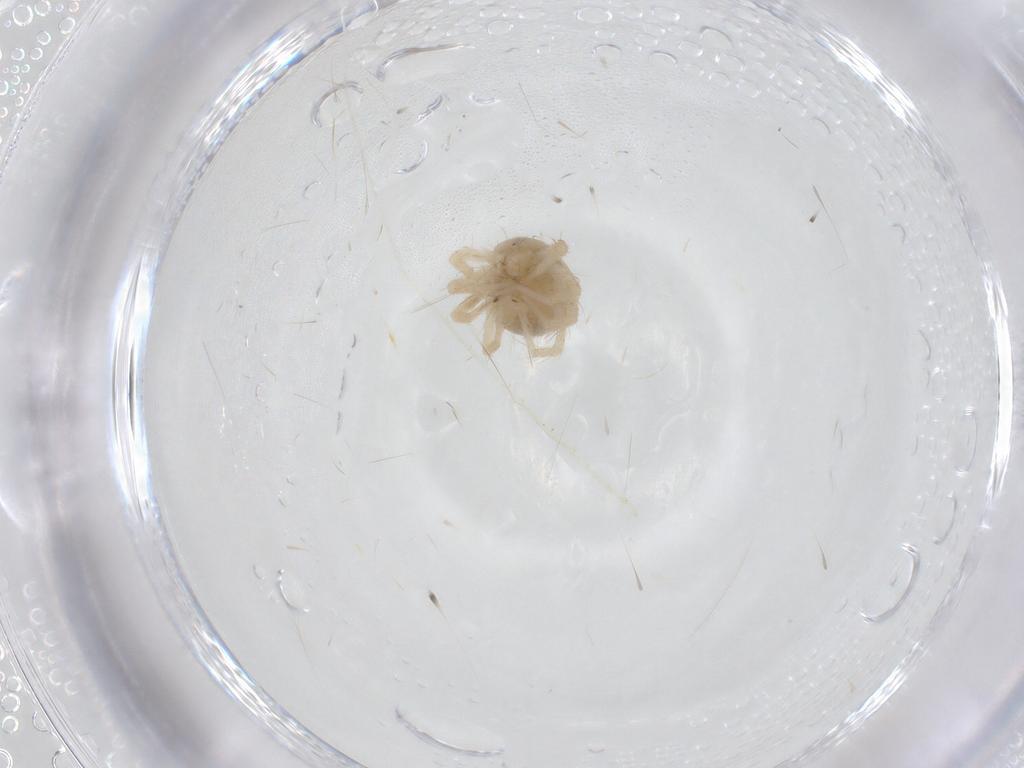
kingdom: Animalia
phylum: Arthropoda
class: Arachnida
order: Trombidiformes
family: Anystidae
